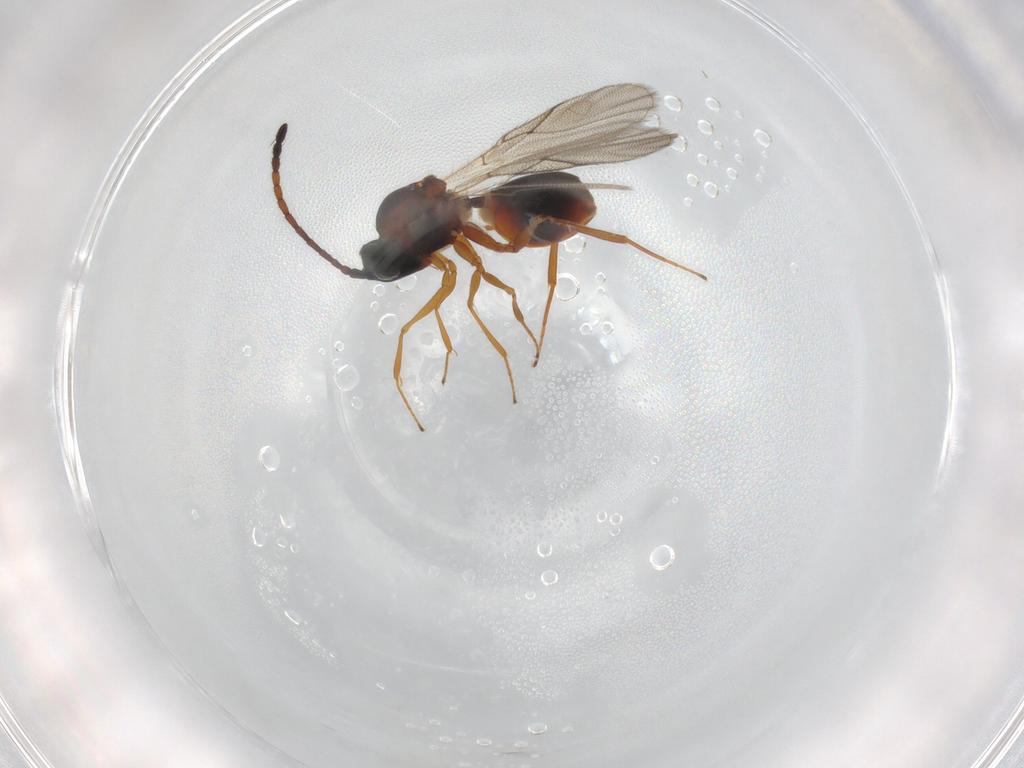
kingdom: Animalia
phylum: Arthropoda
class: Insecta
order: Hymenoptera
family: Figitidae
